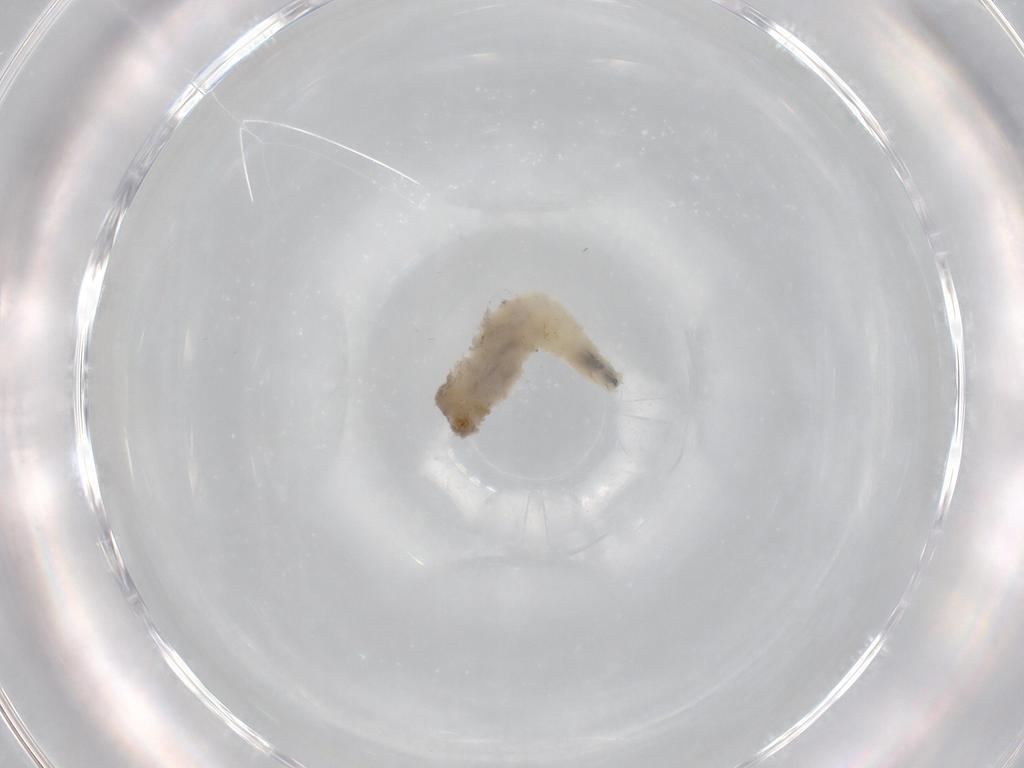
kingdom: Animalia
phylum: Arthropoda
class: Insecta
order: Diptera
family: Drosophilidae
